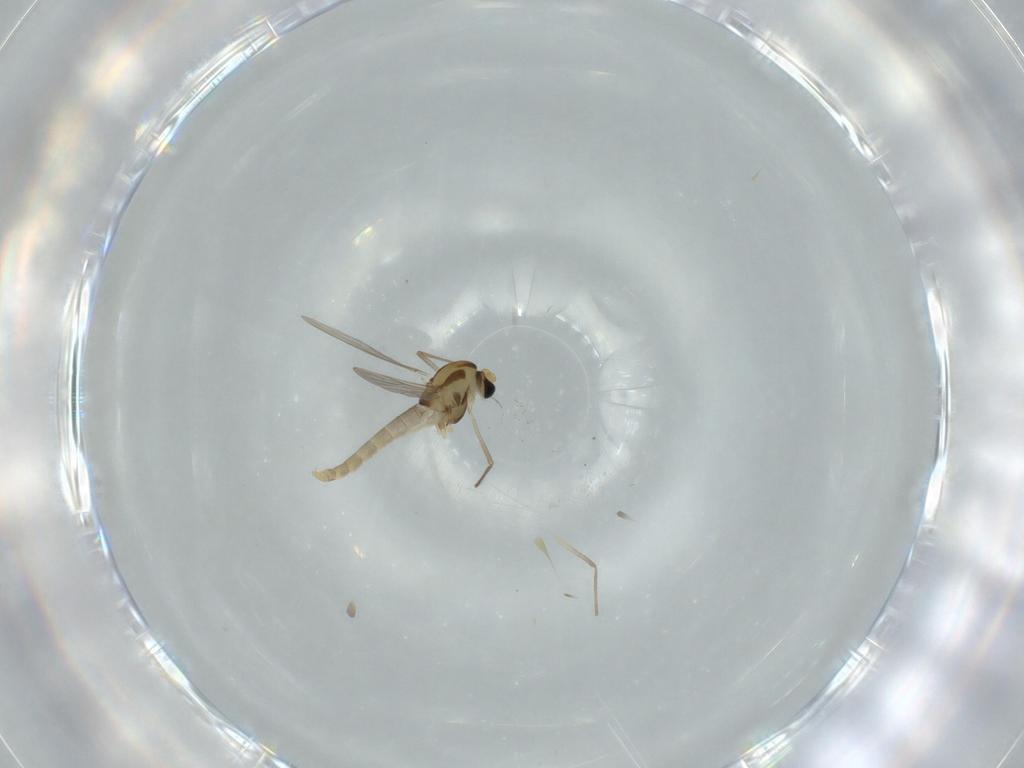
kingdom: Animalia
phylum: Arthropoda
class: Insecta
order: Diptera
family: Chironomidae
